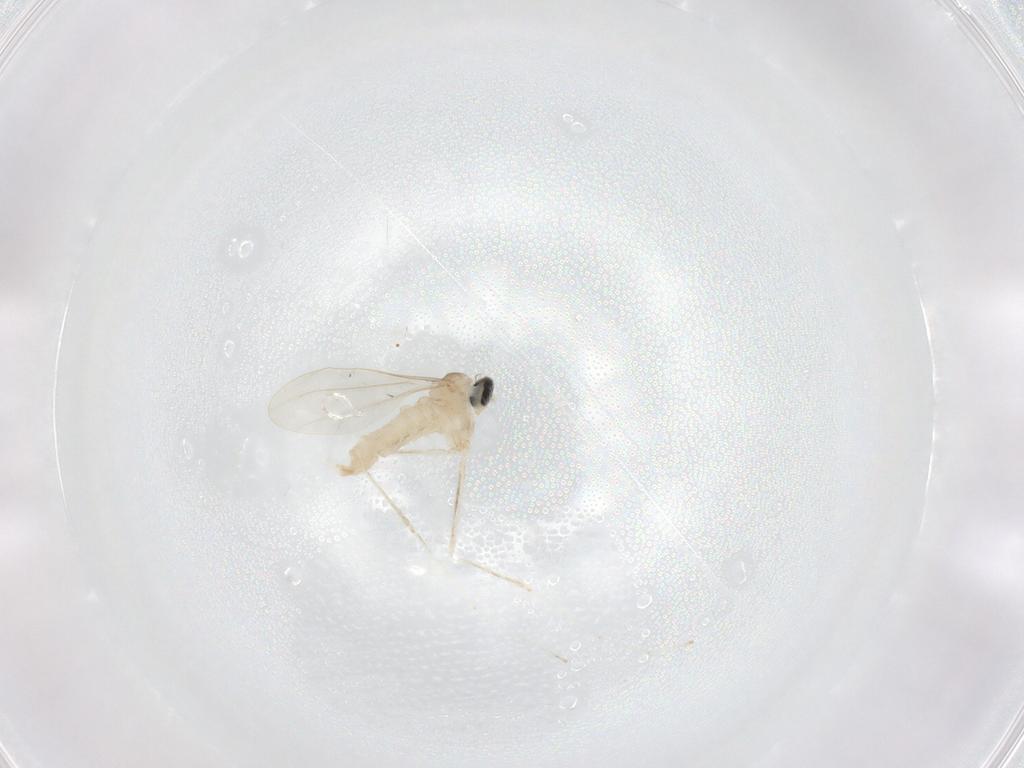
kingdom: Animalia
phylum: Arthropoda
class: Insecta
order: Diptera
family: Cecidomyiidae
